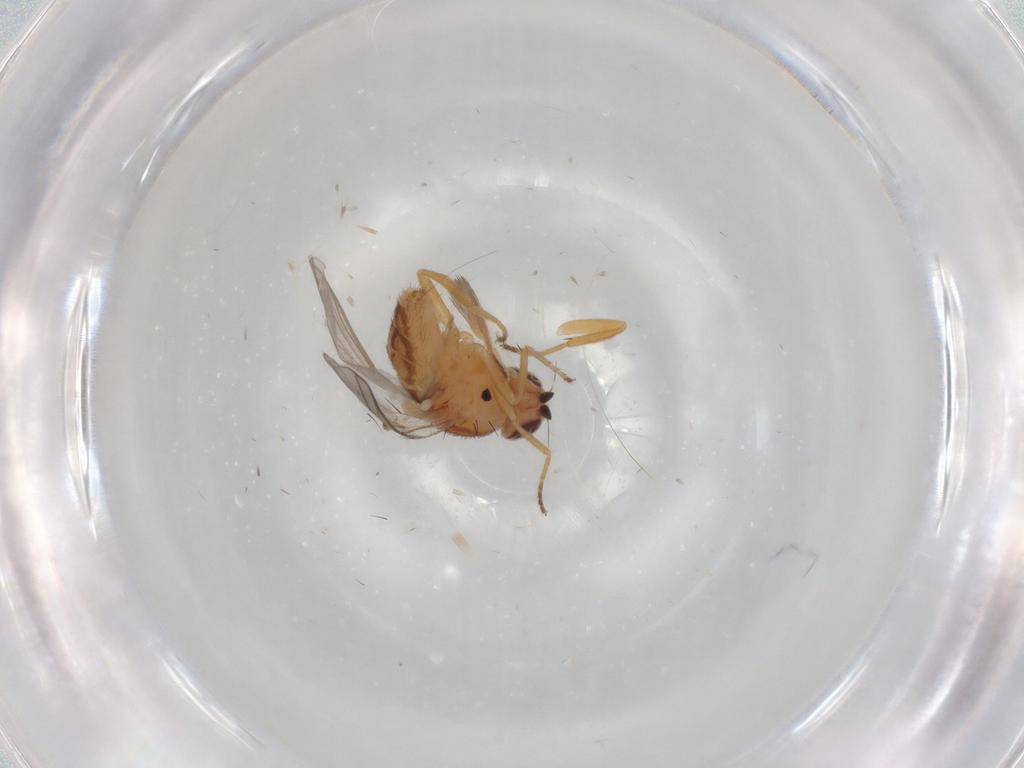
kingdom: Animalia
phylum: Arthropoda
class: Insecta
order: Diptera
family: Chloropidae
